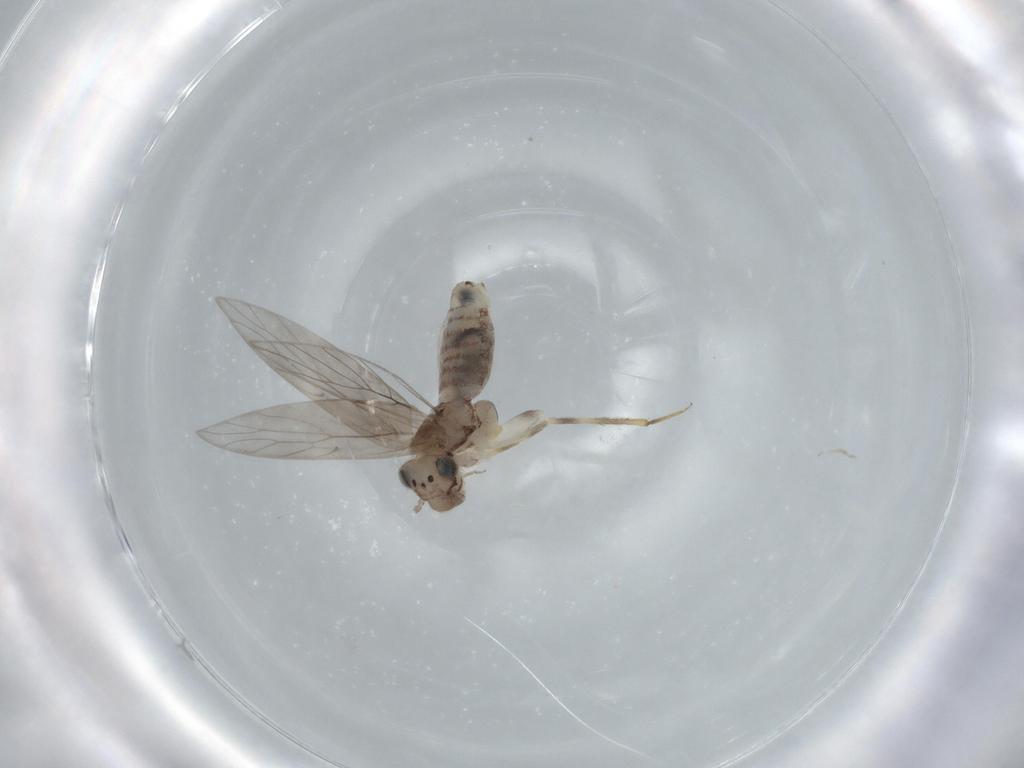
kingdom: Animalia
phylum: Arthropoda
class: Insecta
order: Psocodea
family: Lepidopsocidae
